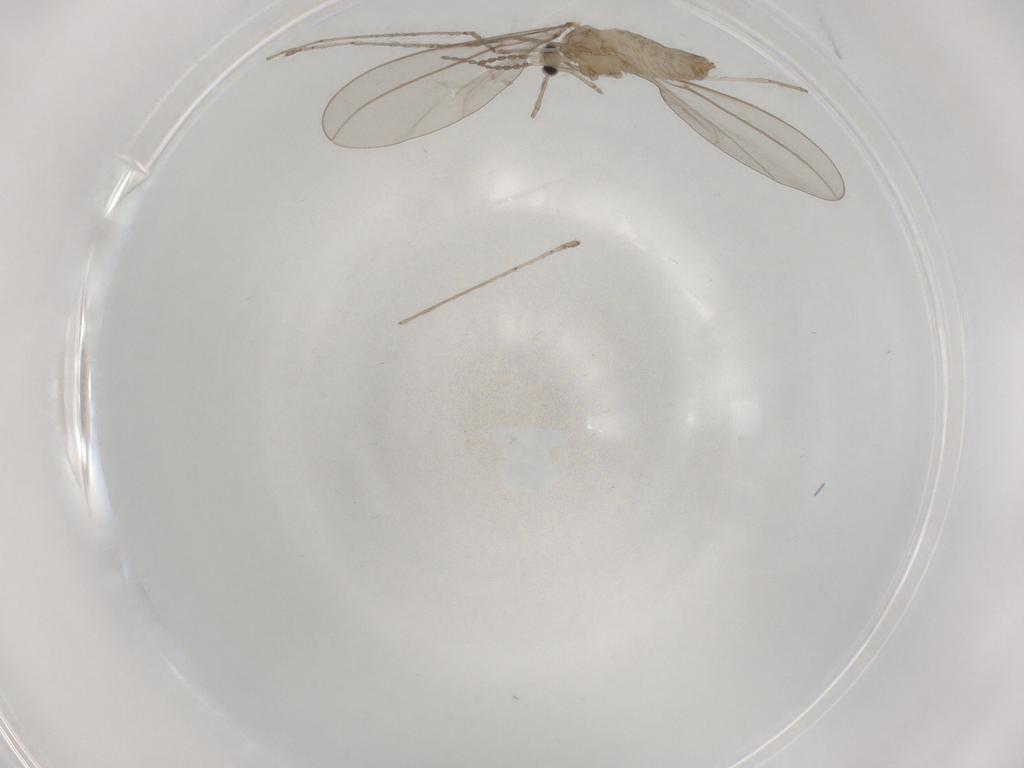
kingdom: Animalia
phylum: Arthropoda
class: Insecta
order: Diptera
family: Cecidomyiidae
